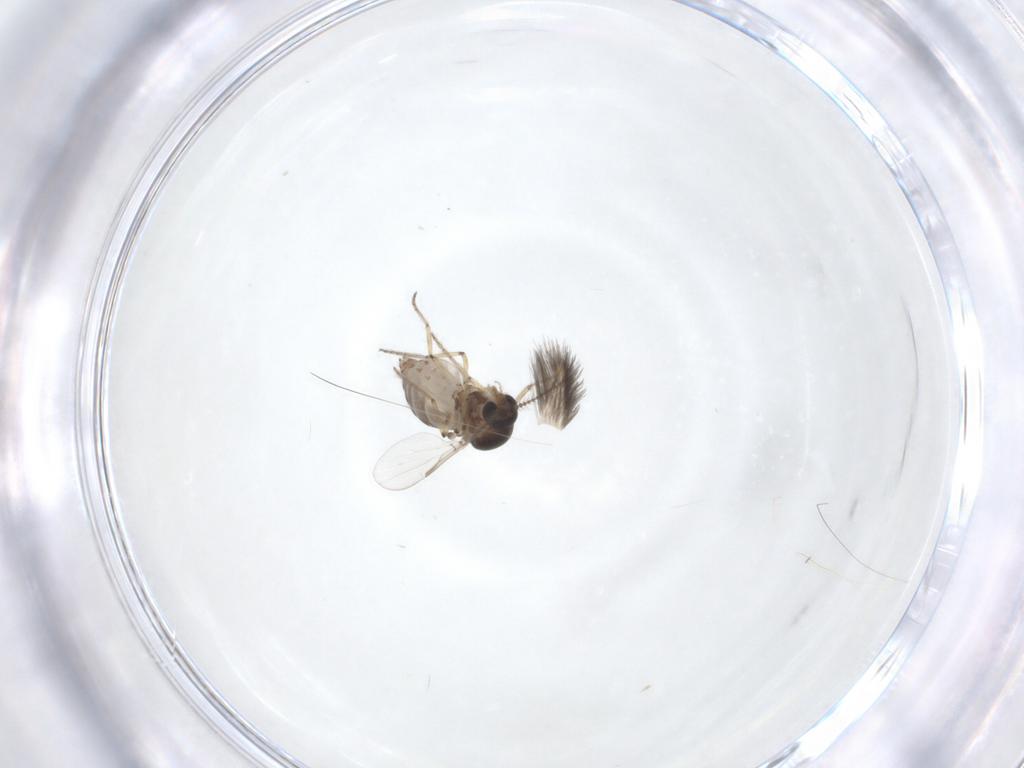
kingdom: Animalia
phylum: Arthropoda
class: Insecta
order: Diptera
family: Ceratopogonidae
